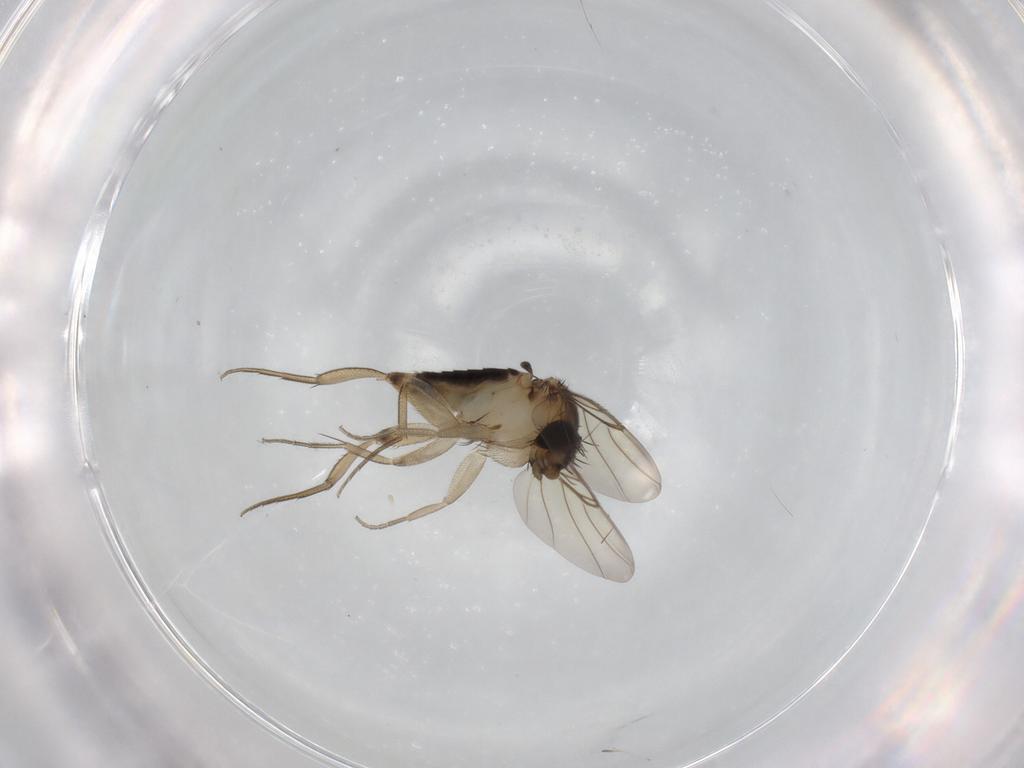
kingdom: Animalia
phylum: Arthropoda
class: Insecta
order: Diptera
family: Phoridae
